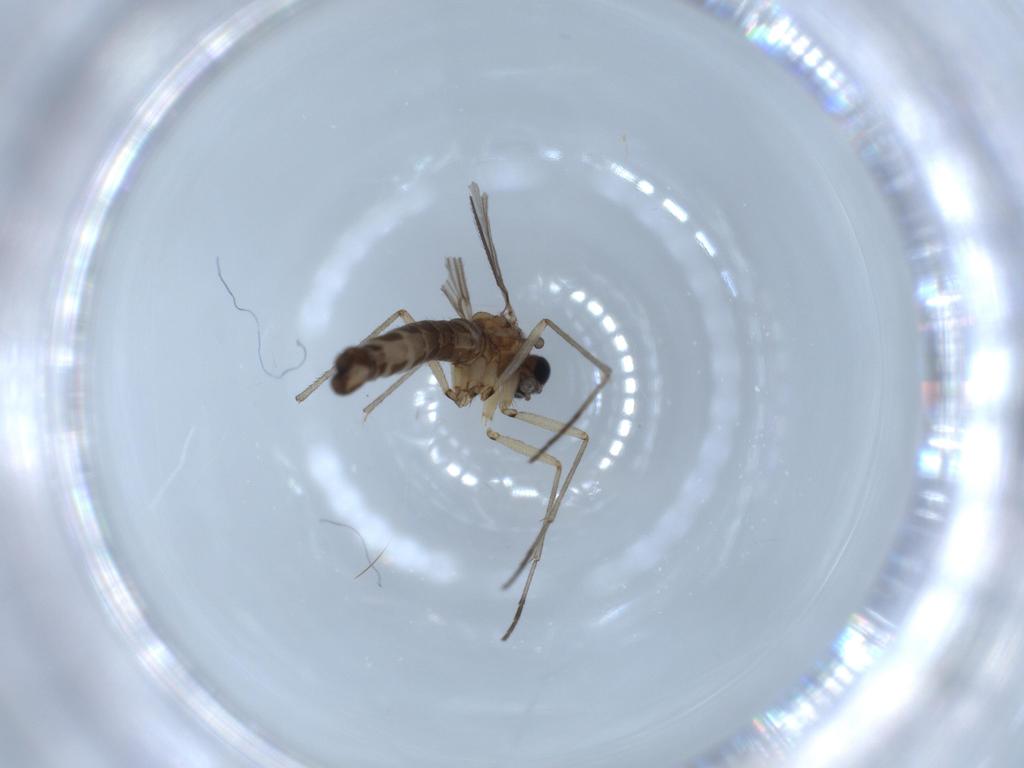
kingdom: Animalia
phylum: Arthropoda
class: Insecta
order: Diptera
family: Sciaridae
